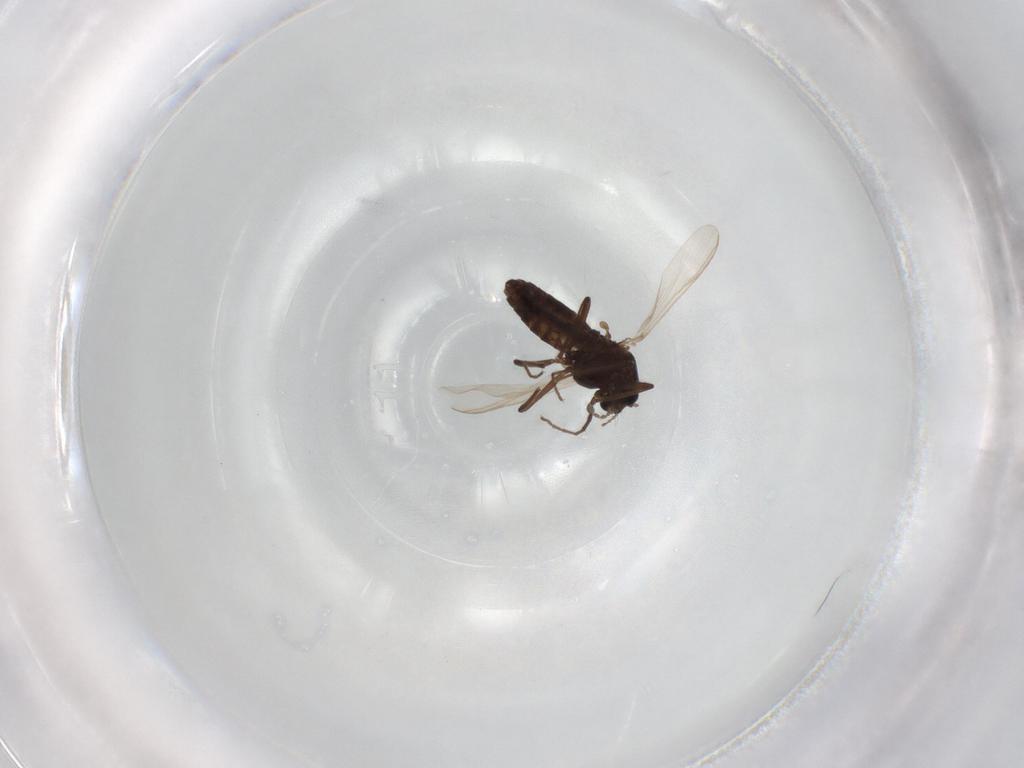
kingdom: Animalia
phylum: Arthropoda
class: Insecta
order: Diptera
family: Chironomidae
